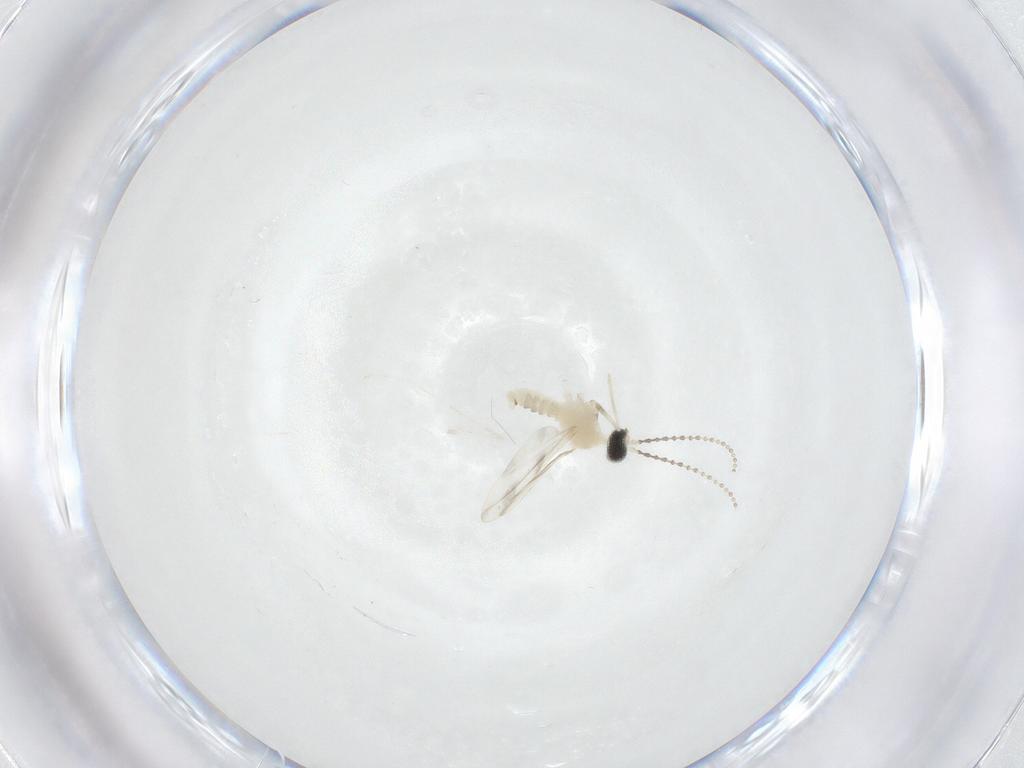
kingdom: Animalia
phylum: Arthropoda
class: Insecta
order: Diptera
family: Cecidomyiidae
